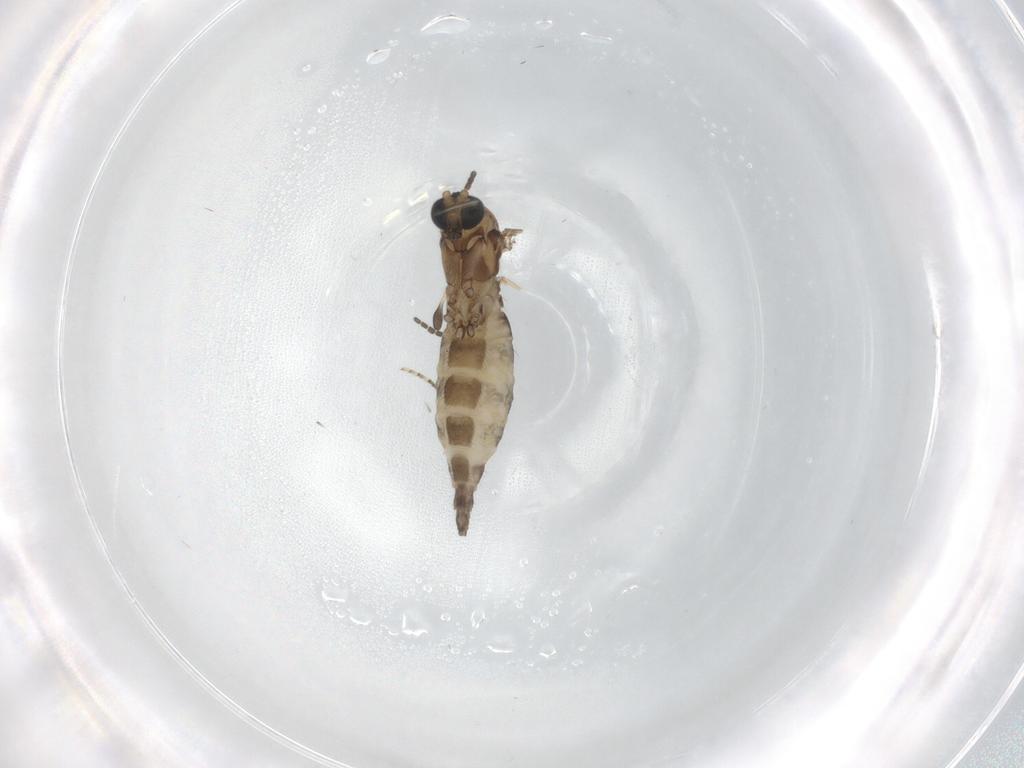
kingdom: Animalia
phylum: Arthropoda
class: Insecta
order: Diptera
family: Sciaridae
